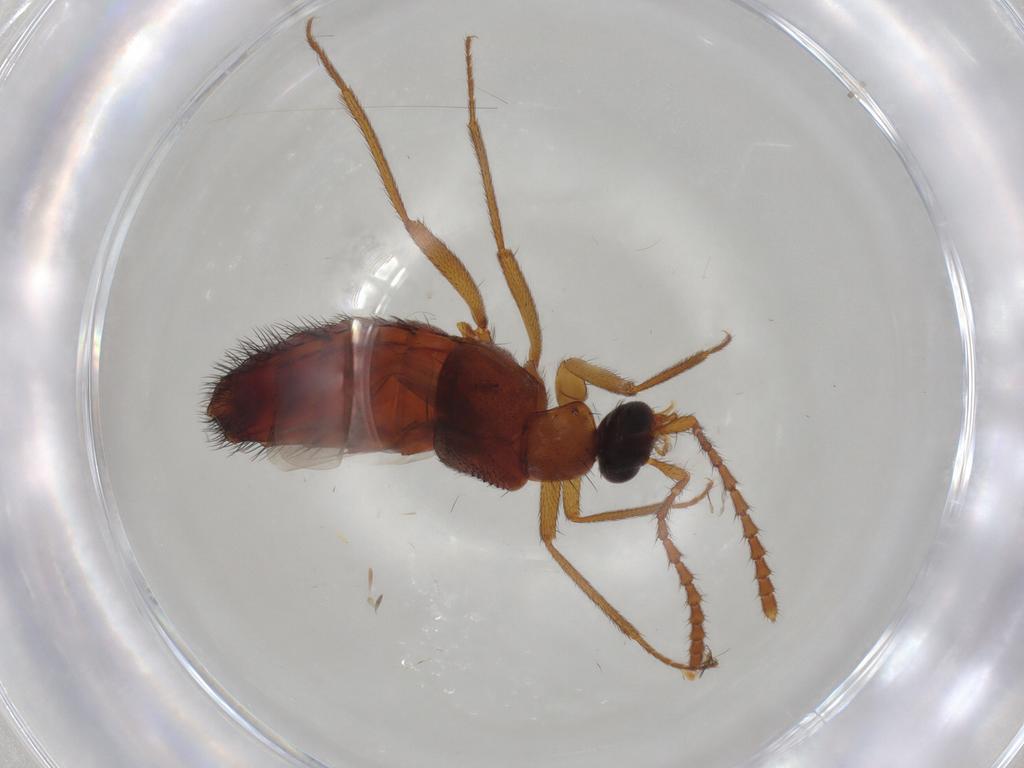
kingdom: Animalia
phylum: Arthropoda
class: Insecta
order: Coleoptera
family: Staphylinidae
